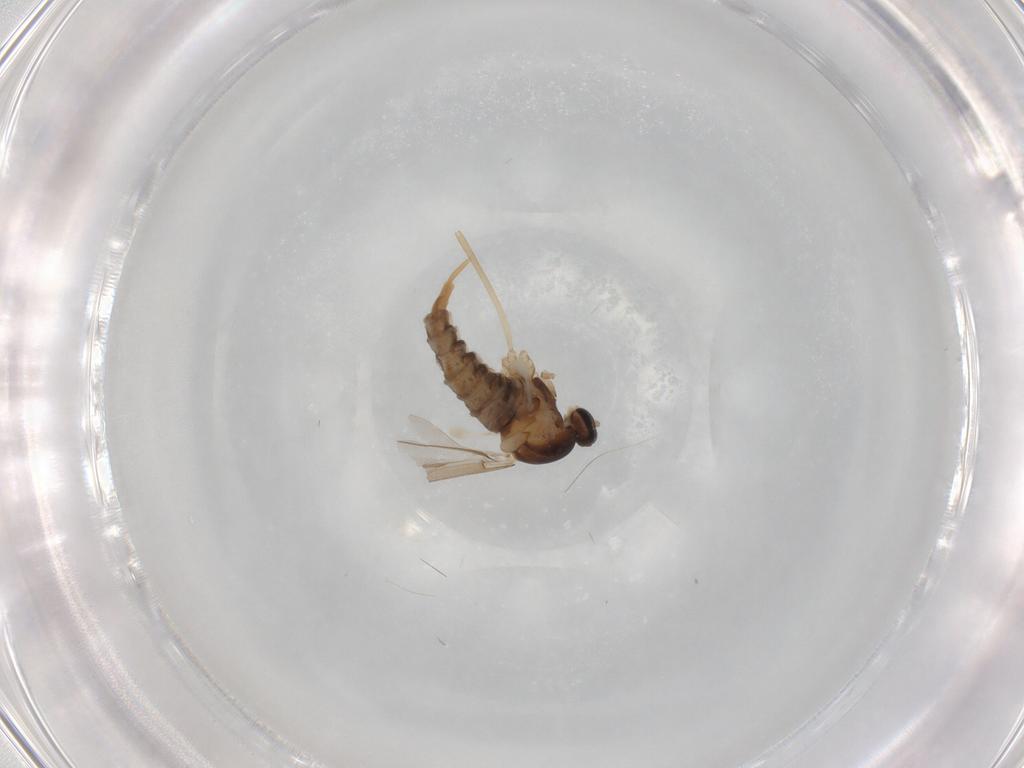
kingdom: Animalia
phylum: Arthropoda
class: Insecta
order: Diptera
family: Cecidomyiidae
